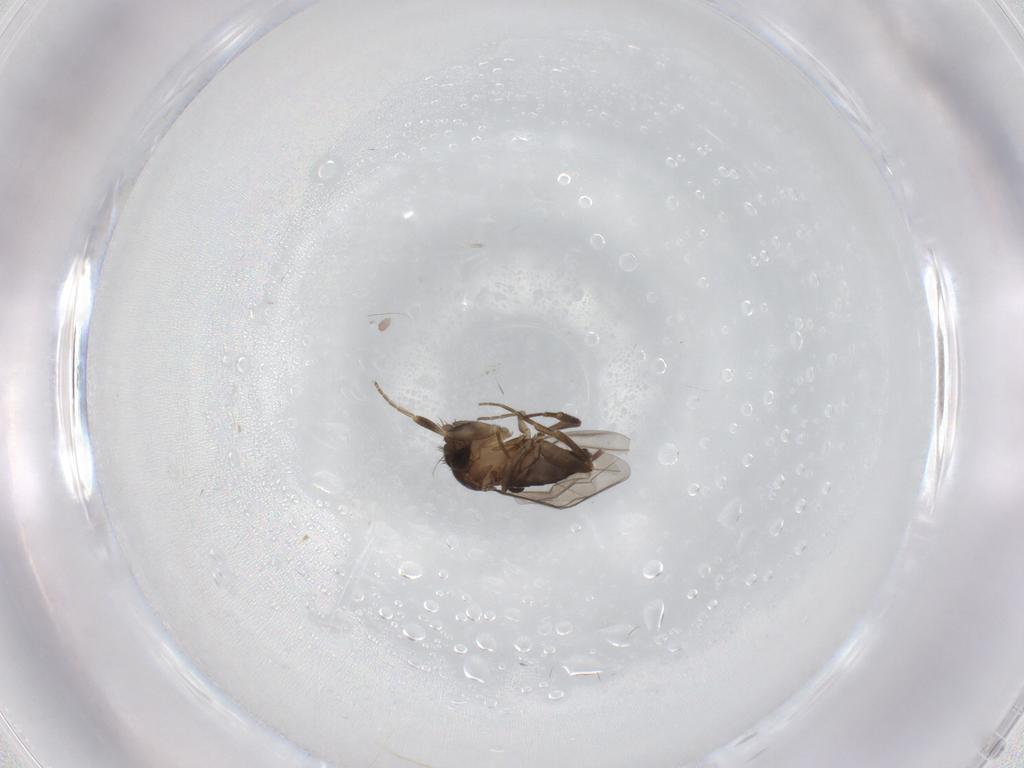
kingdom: Animalia
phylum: Arthropoda
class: Insecta
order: Diptera
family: Phoridae
